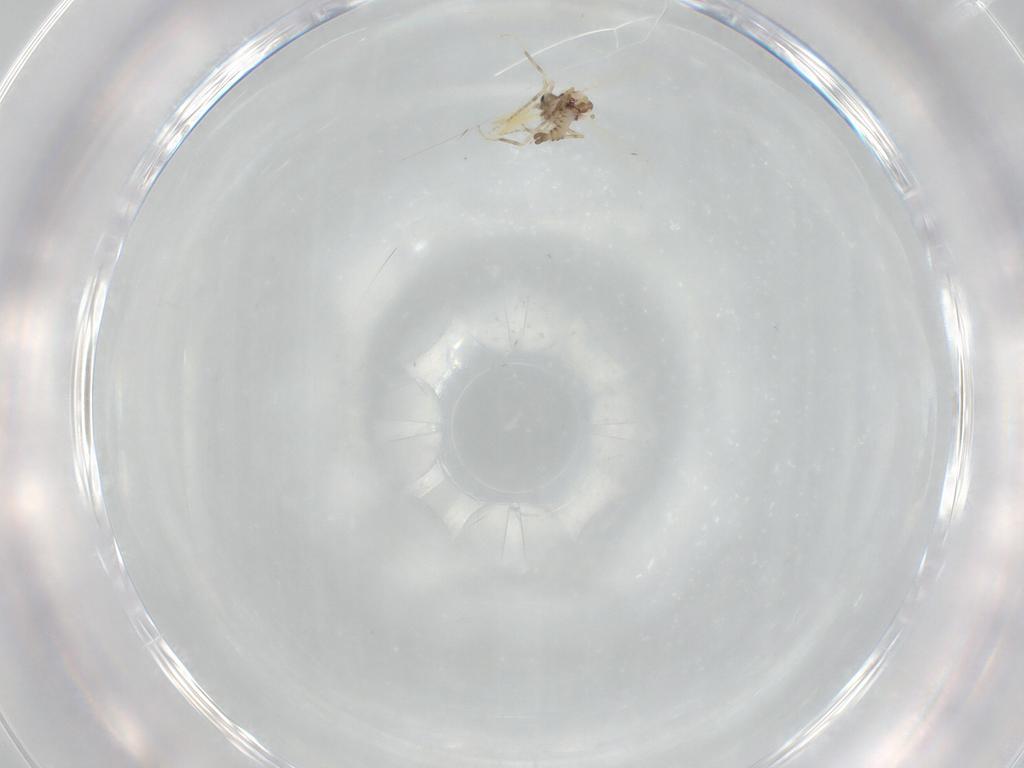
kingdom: Animalia
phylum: Arthropoda
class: Insecta
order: Diptera
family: Ceratopogonidae
